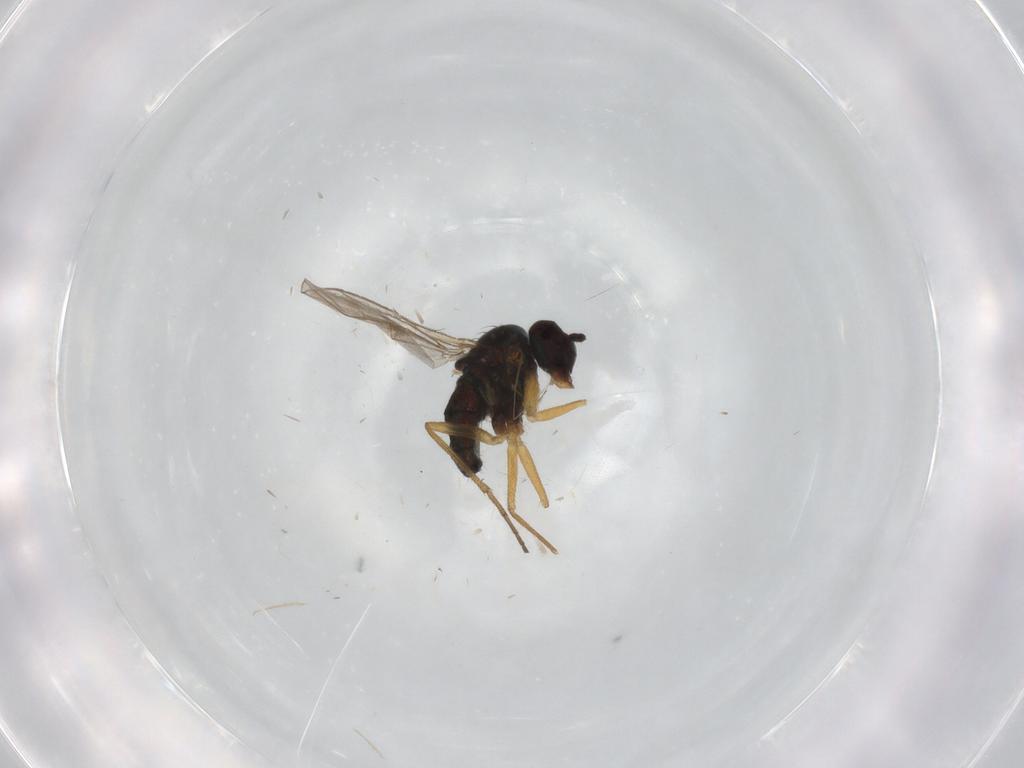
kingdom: Animalia
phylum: Arthropoda
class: Insecta
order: Diptera
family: Dolichopodidae
